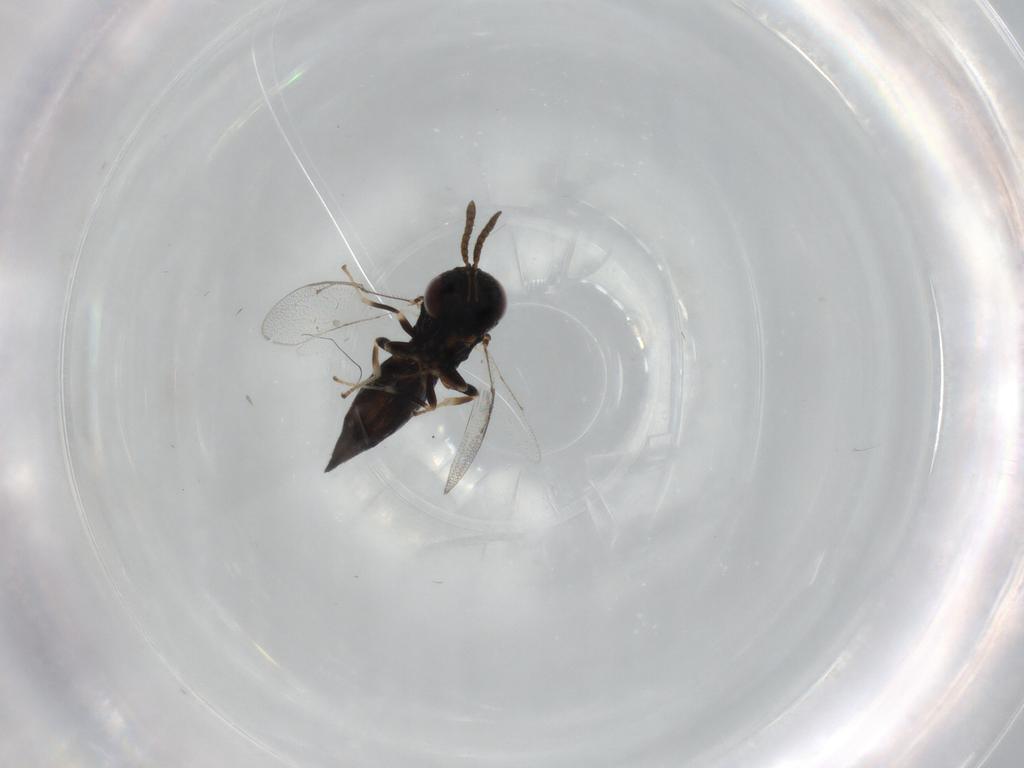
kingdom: Animalia
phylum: Arthropoda
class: Insecta
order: Hymenoptera
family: Pteromalidae
